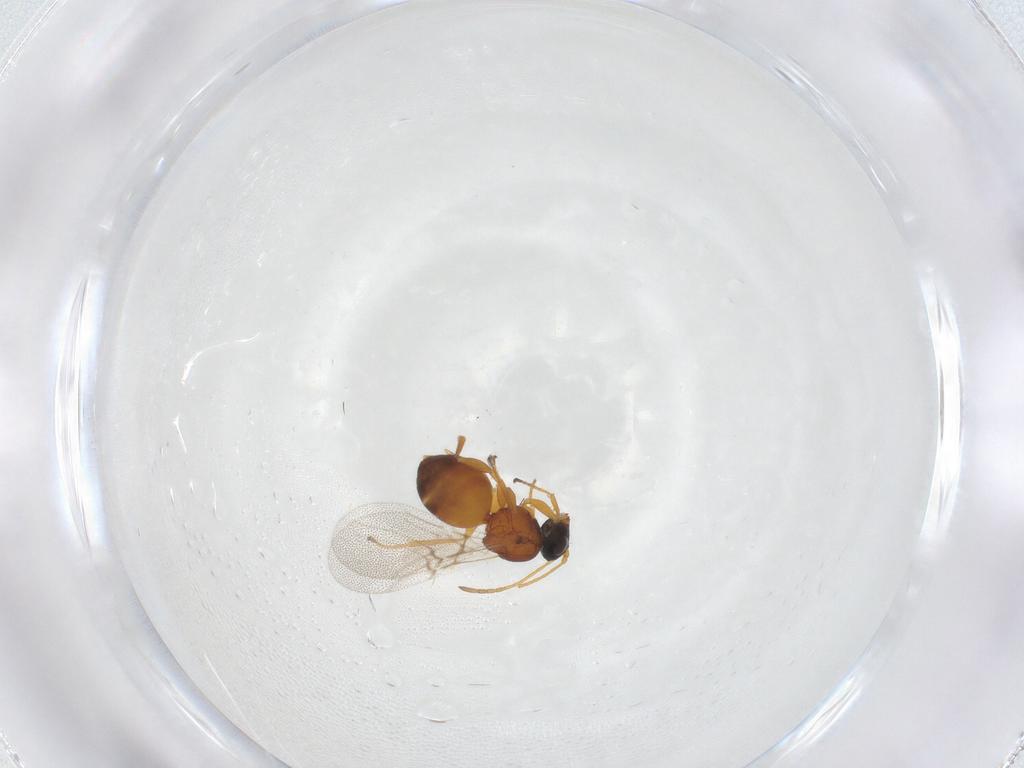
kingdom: Animalia
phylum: Arthropoda
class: Insecta
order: Hymenoptera
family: Cynipidae
